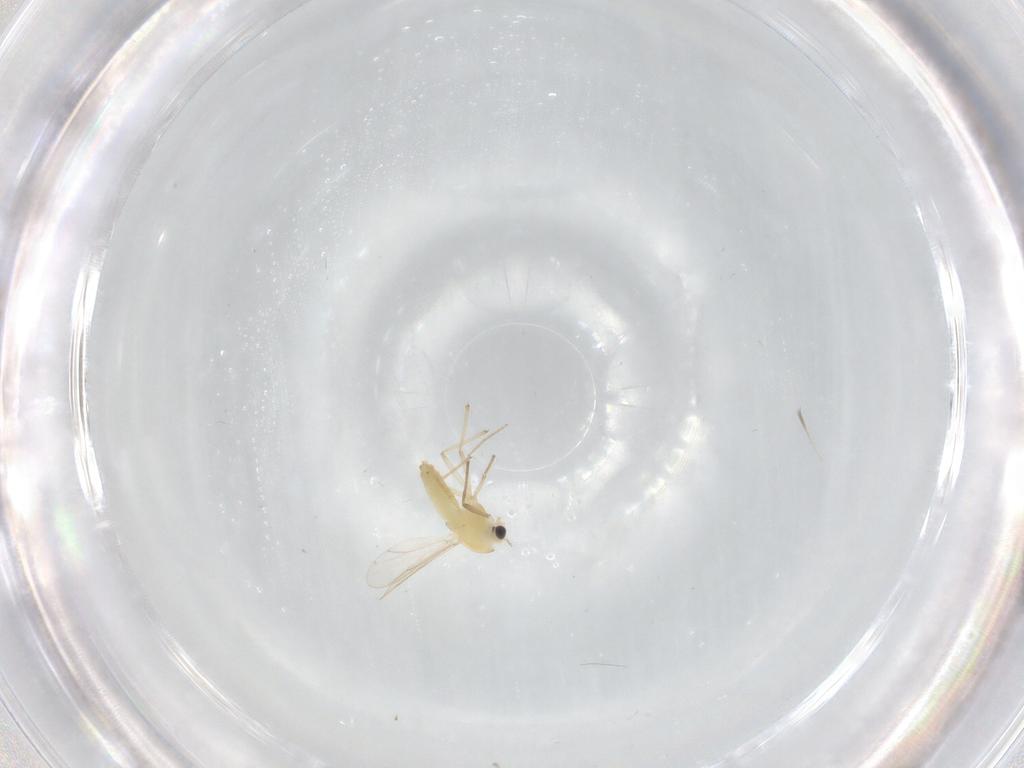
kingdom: Animalia
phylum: Arthropoda
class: Insecta
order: Diptera
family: Chironomidae
